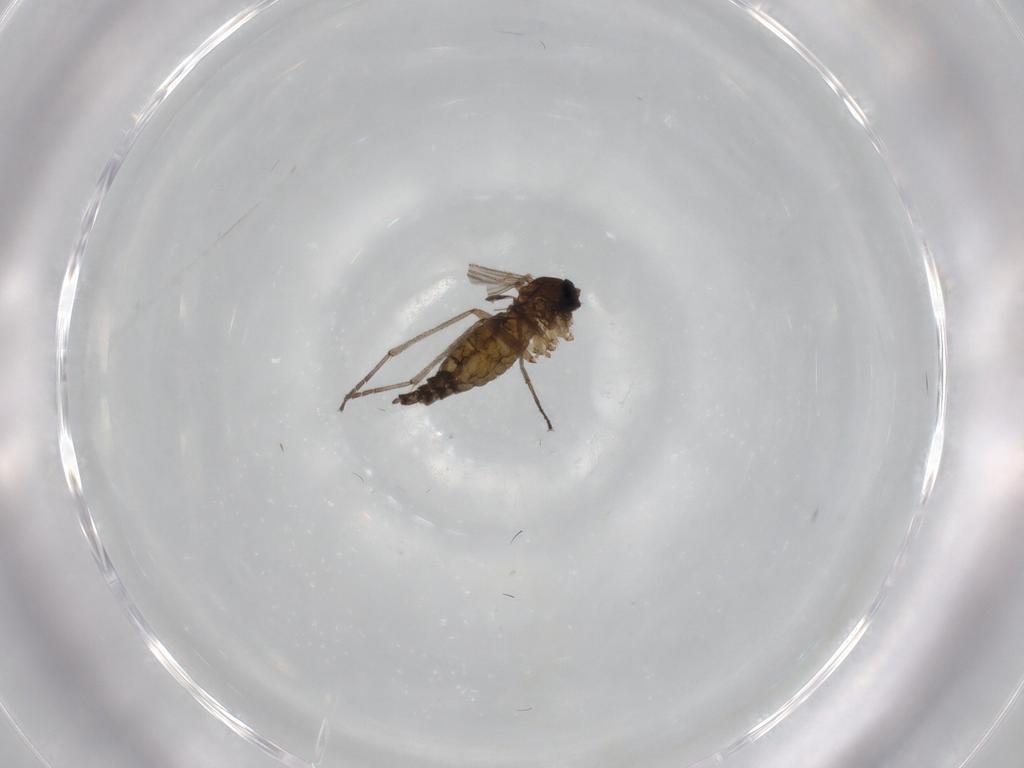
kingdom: Animalia
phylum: Arthropoda
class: Insecta
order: Diptera
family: Sciaridae
